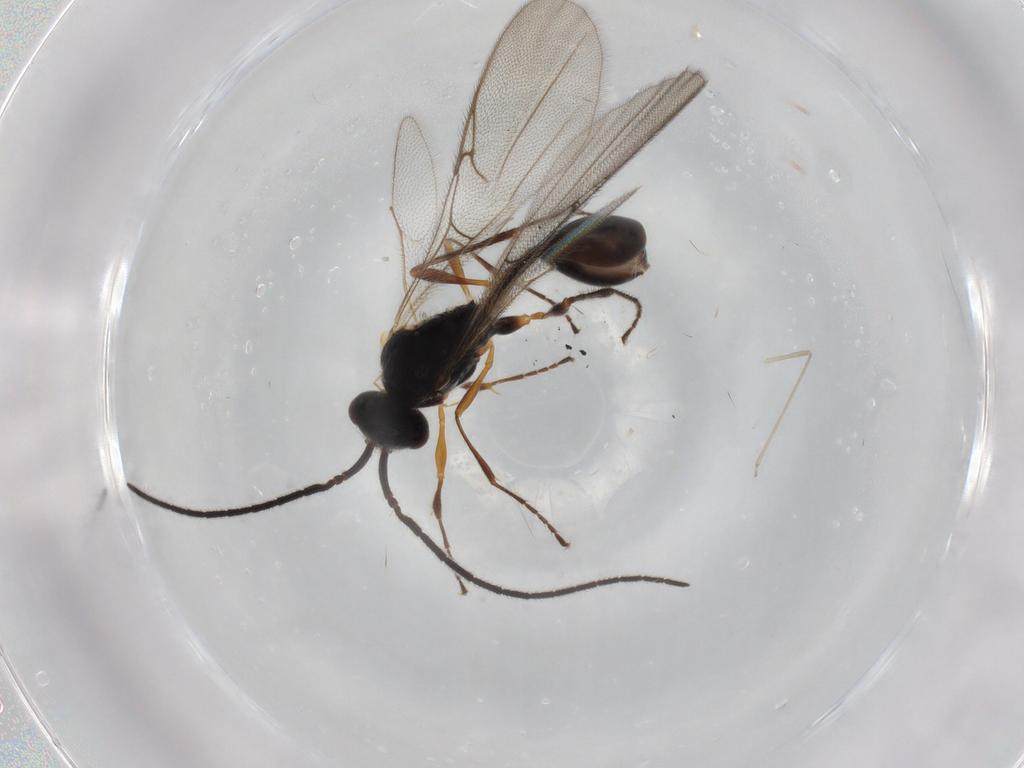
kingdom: Animalia
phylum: Arthropoda
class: Insecta
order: Hymenoptera
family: Diapriidae
